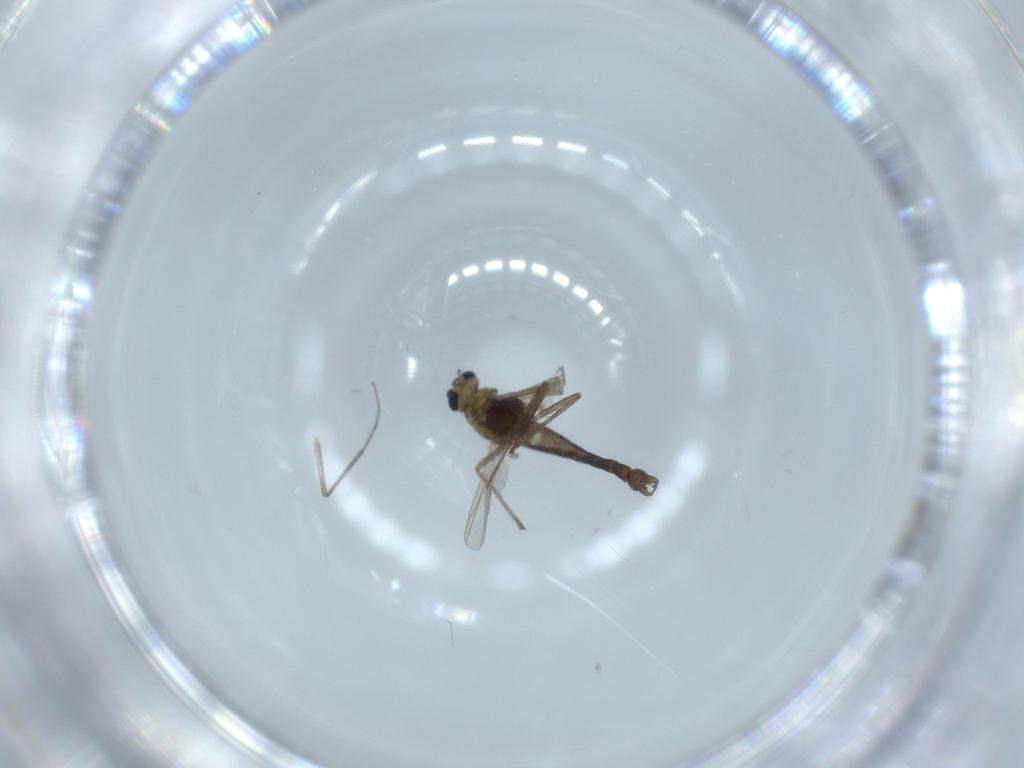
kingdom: Animalia
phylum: Arthropoda
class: Insecta
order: Diptera
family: Chironomidae
